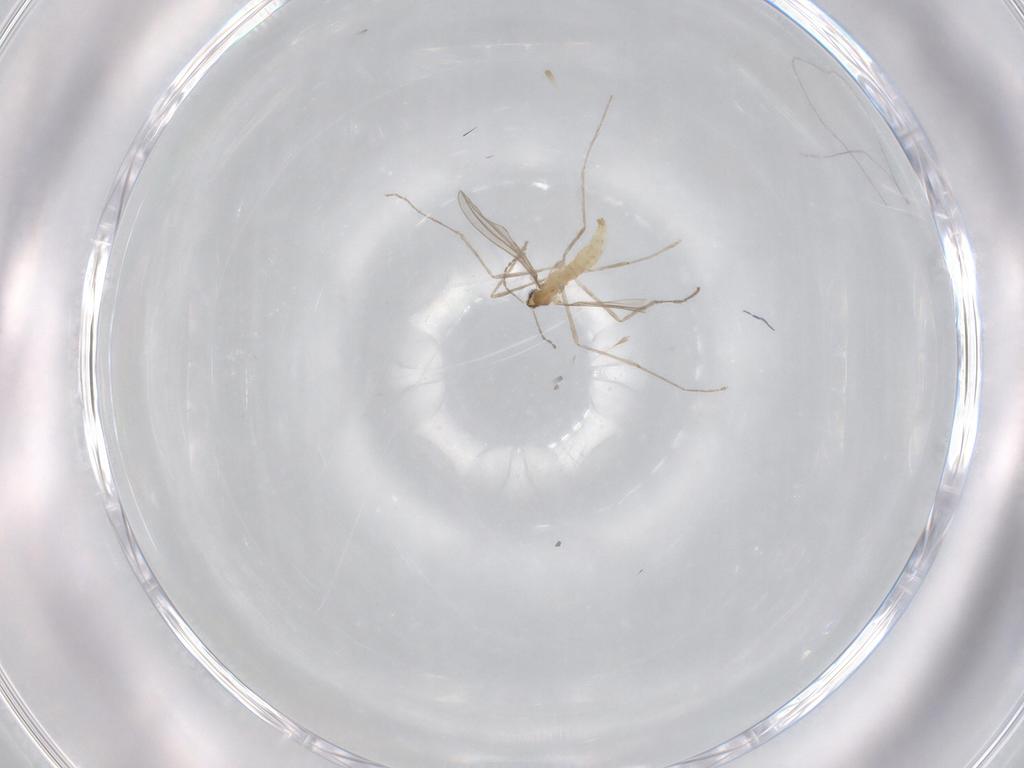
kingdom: Animalia
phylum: Arthropoda
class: Insecta
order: Diptera
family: Cecidomyiidae
